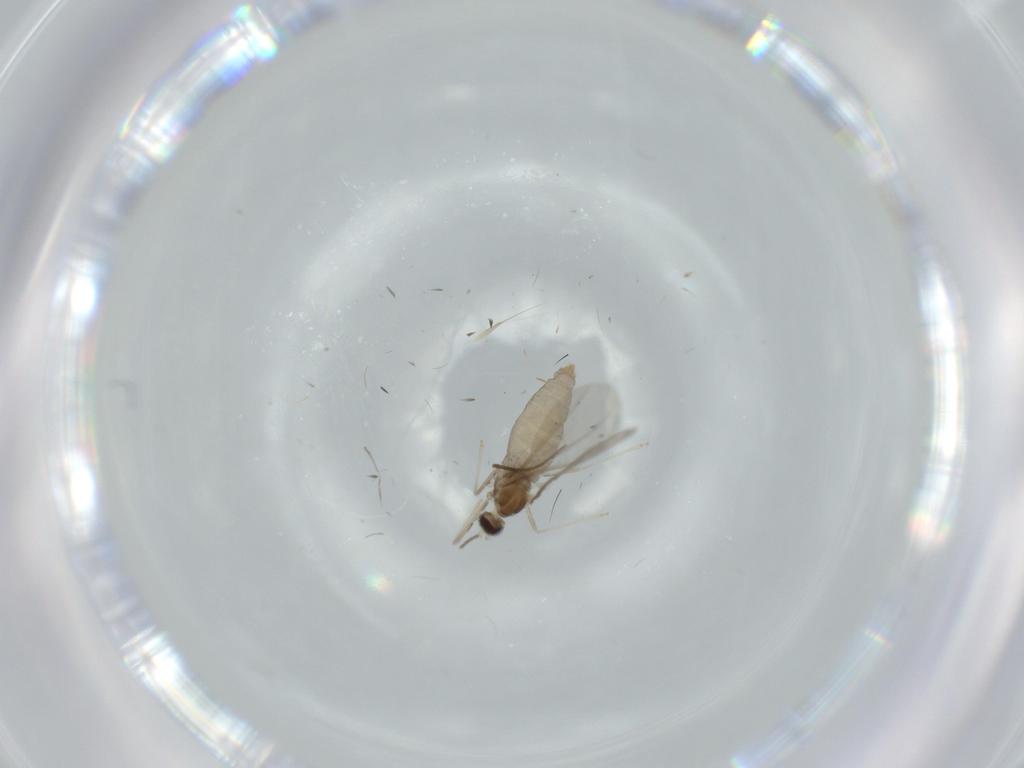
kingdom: Animalia
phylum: Arthropoda
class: Insecta
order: Diptera
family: Cecidomyiidae
